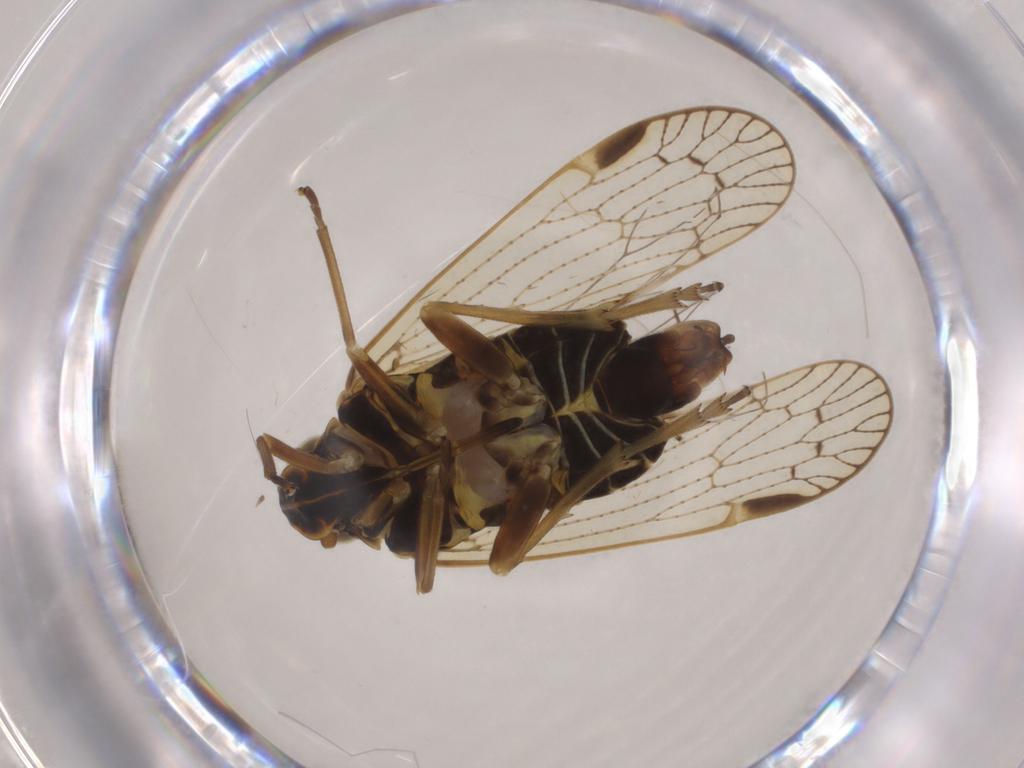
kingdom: Animalia
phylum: Arthropoda
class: Insecta
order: Hemiptera
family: Cixiidae
